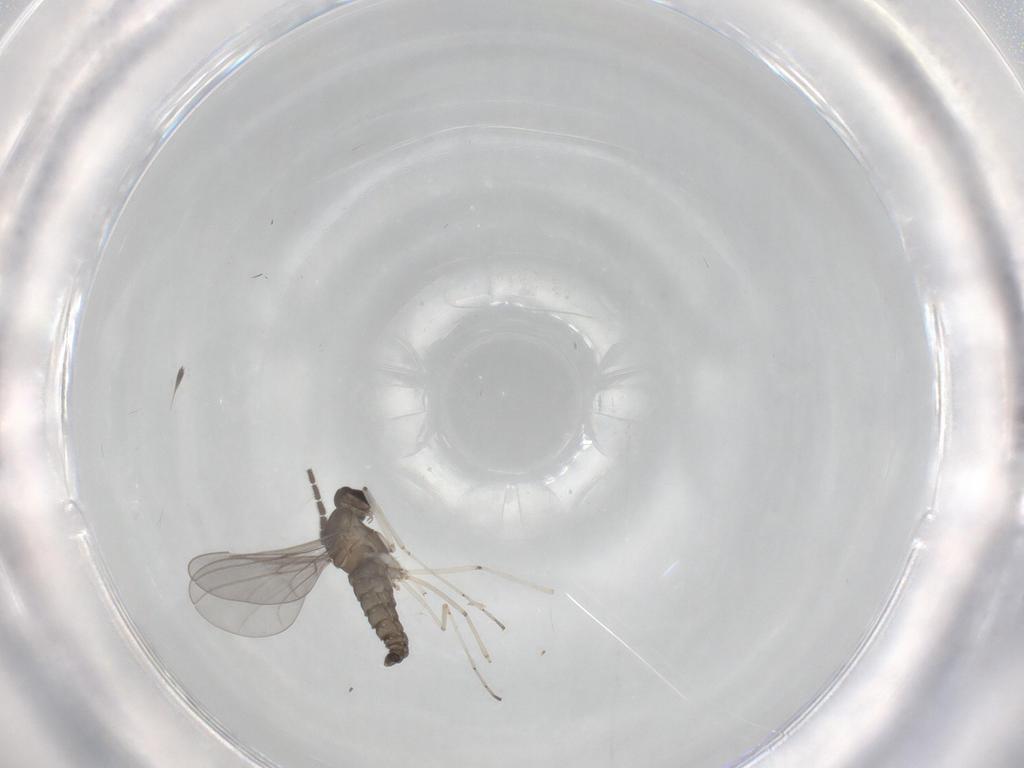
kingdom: Animalia
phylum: Arthropoda
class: Insecta
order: Diptera
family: Sciaridae
